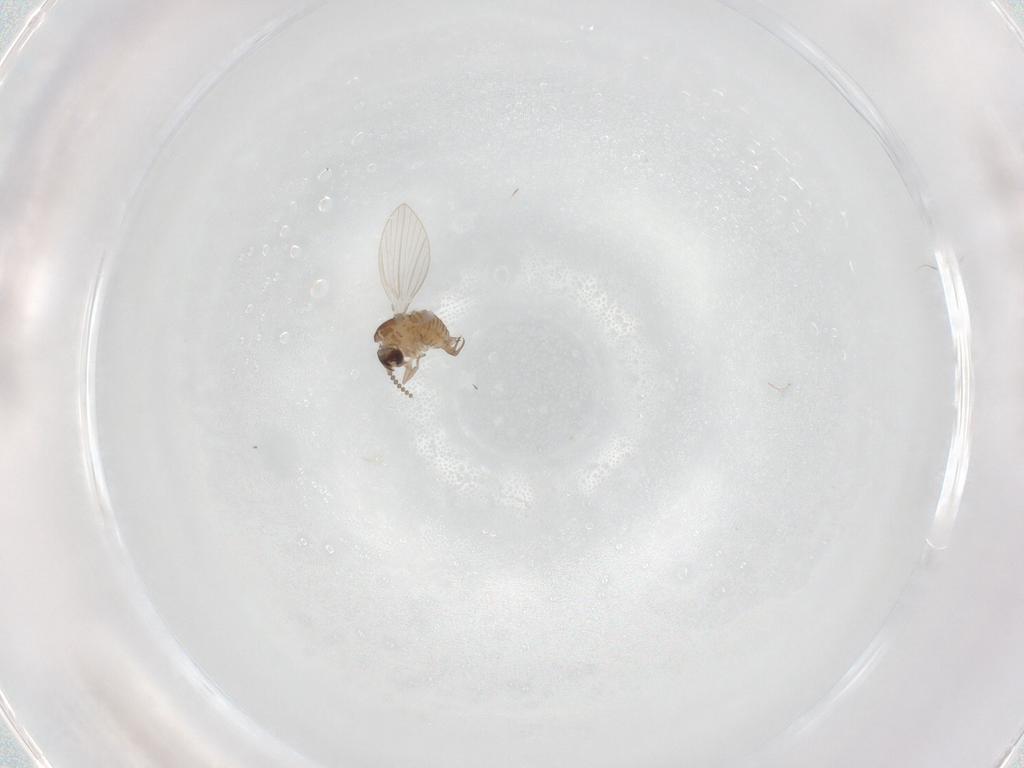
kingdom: Animalia
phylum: Arthropoda
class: Insecta
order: Diptera
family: Psychodidae
